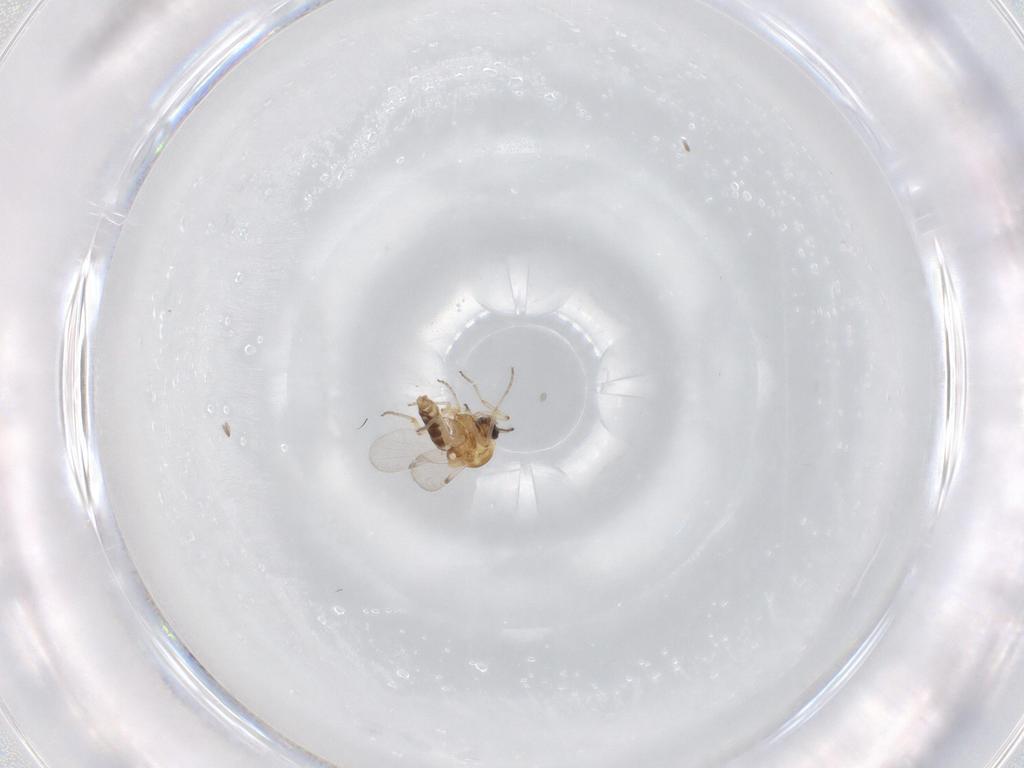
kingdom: Animalia
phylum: Arthropoda
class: Insecta
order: Diptera
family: Ceratopogonidae
